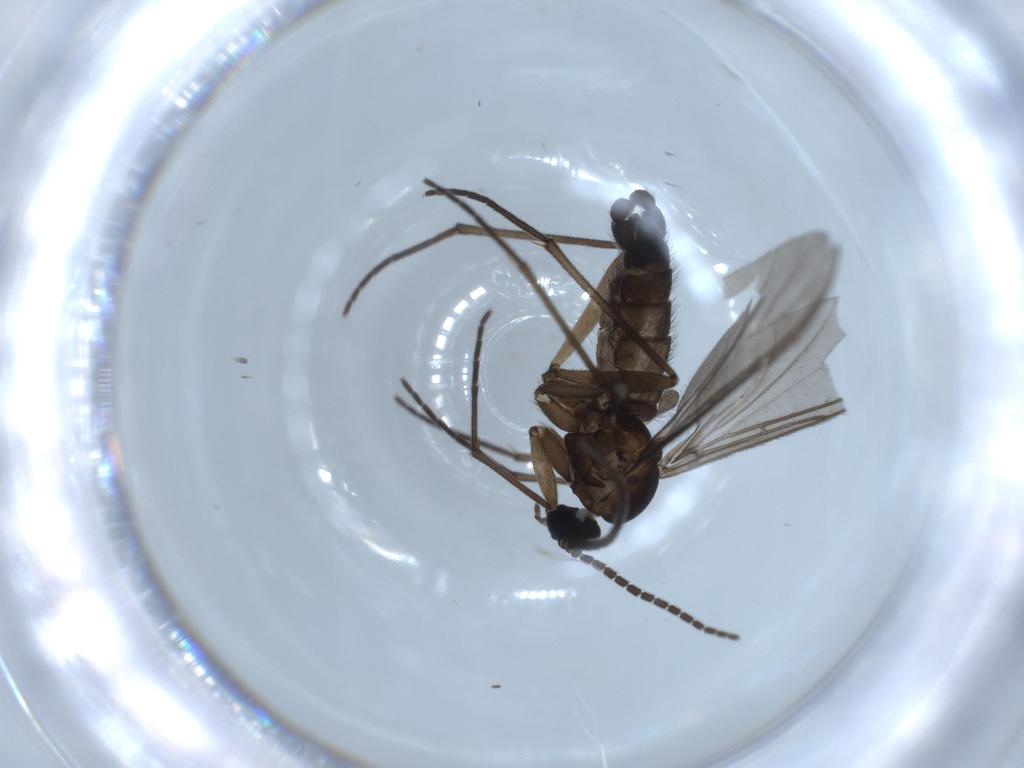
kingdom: Animalia
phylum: Arthropoda
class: Insecta
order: Diptera
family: Sciaridae
